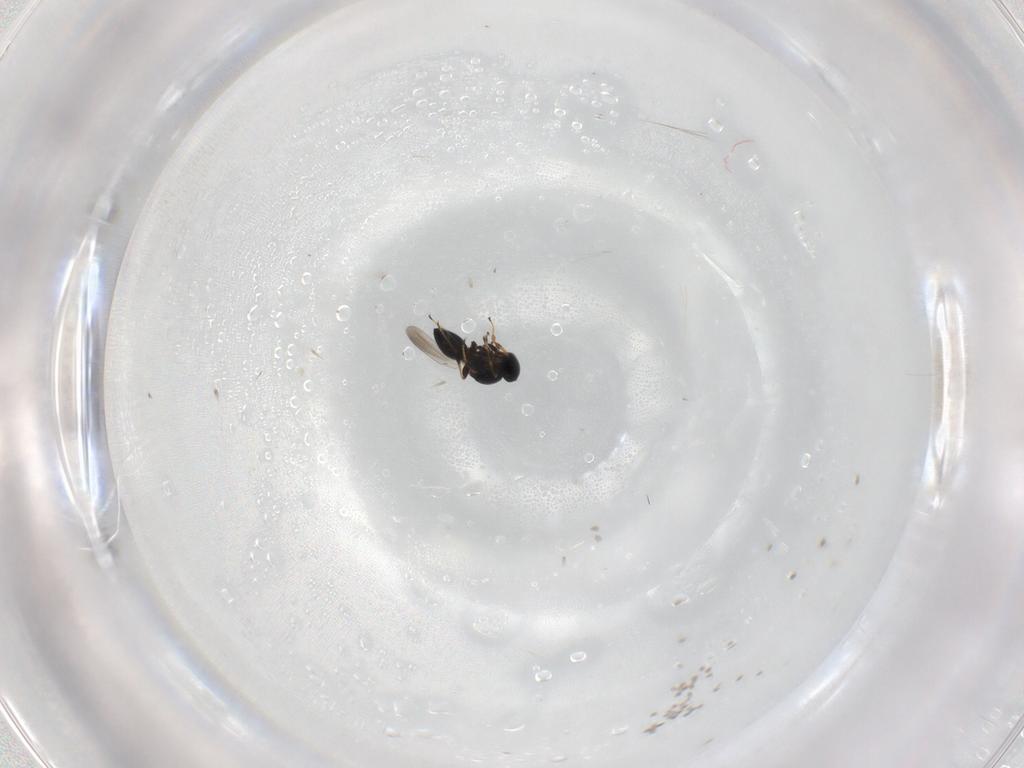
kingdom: Animalia
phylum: Arthropoda
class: Insecta
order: Hymenoptera
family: Platygastridae
